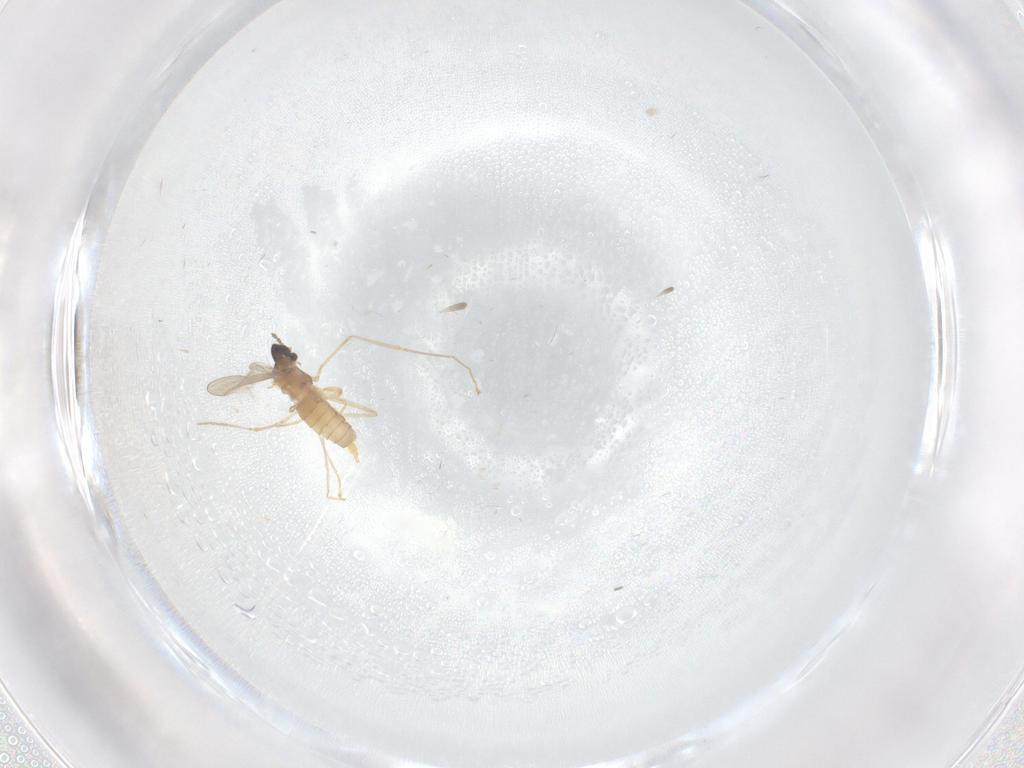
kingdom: Animalia
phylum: Arthropoda
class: Insecta
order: Diptera
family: Cecidomyiidae
